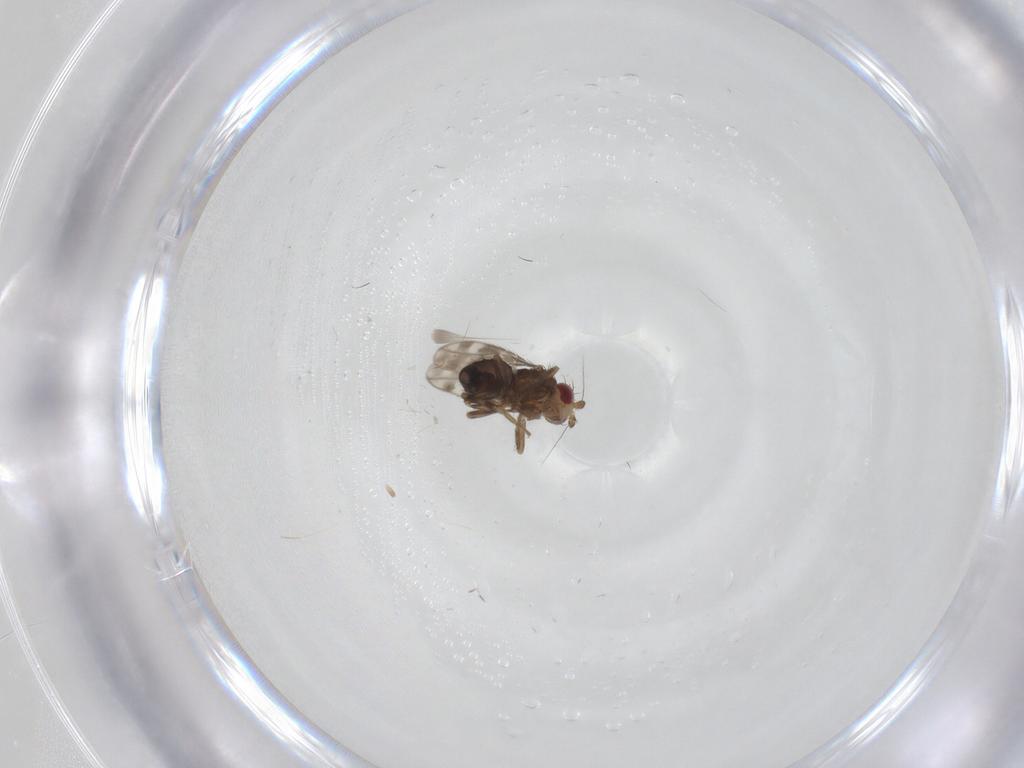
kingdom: Animalia
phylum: Arthropoda
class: Insecta
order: Diptera
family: Sphaeroceridae
